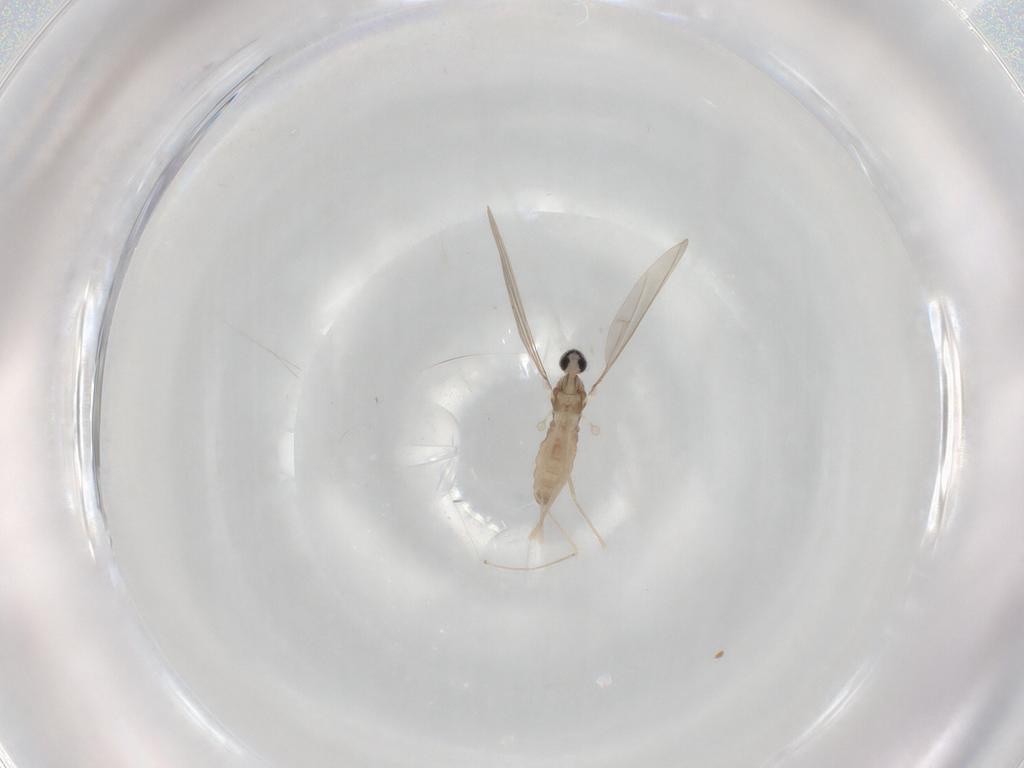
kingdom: Animalia
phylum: Arthropoda
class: Insecta
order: Diptera
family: Cecidomyiidae
